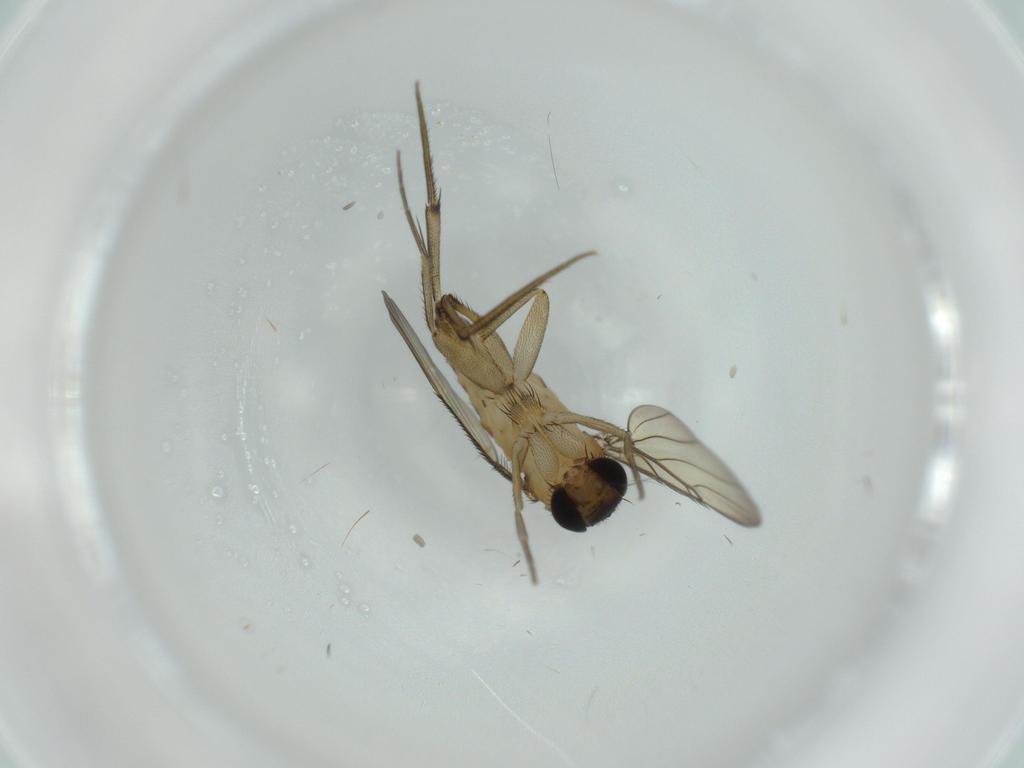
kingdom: Animalia
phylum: Arthropoda
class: Insecta
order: Diptera
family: Phoridae
